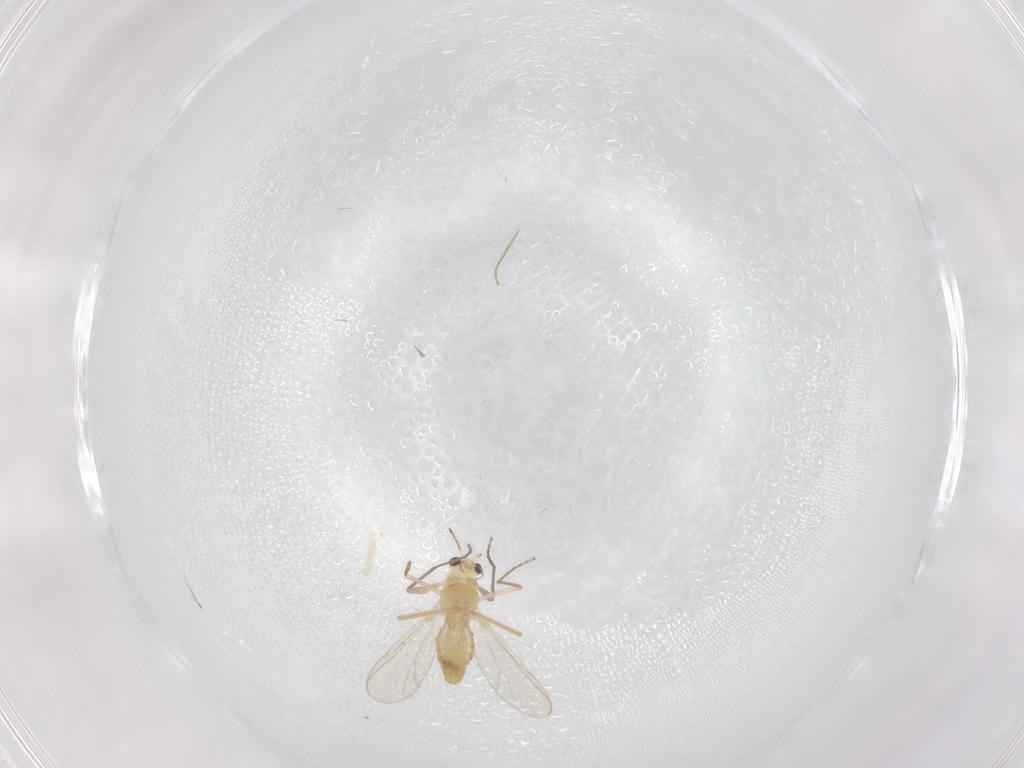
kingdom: Animalia
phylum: Arthropoda
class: Insecta
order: Diptera
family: Chironomidae
